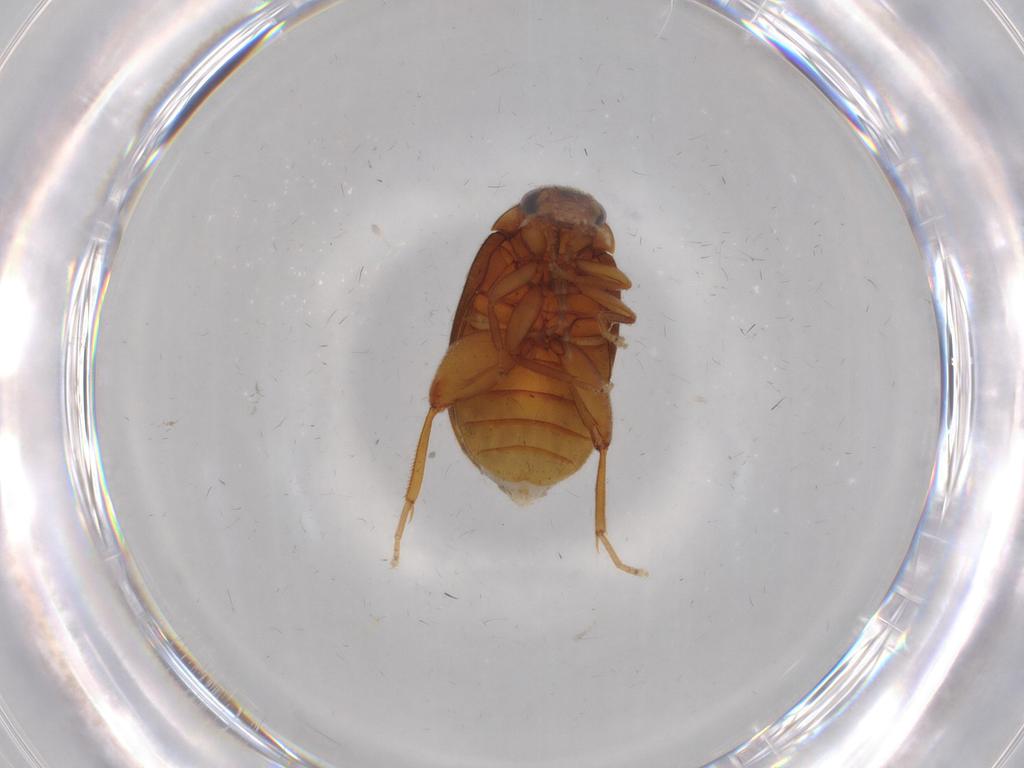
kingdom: Animalia
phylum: Arthropoda
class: Insecta
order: Coleoptera
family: Scirtidae
